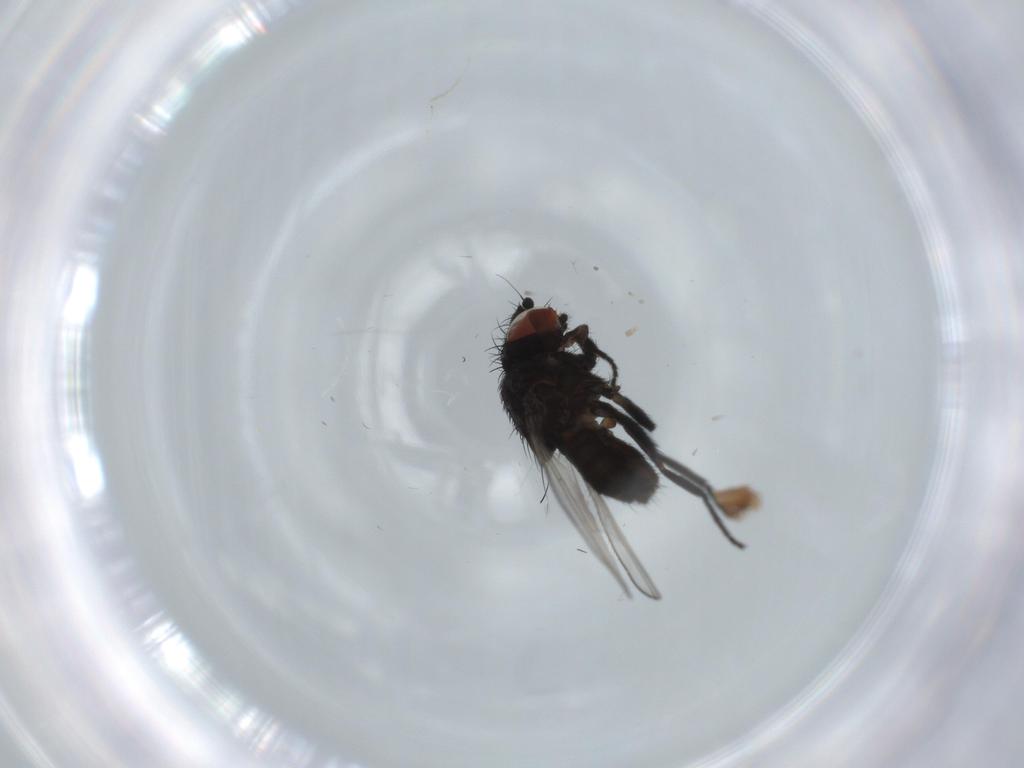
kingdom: Animalia
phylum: Arthropoda
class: Insecta
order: Diptera
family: Milichiidae
